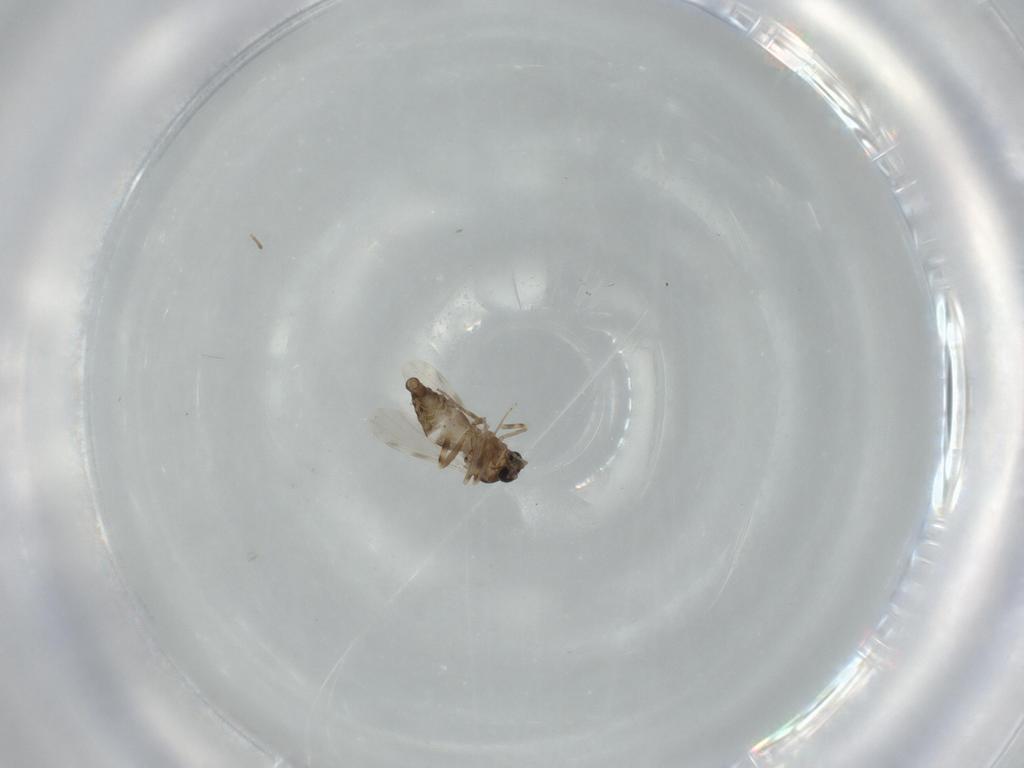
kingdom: Animalia
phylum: Arthropoda
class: Insecta
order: Diptera
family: Ceratopogonidae
